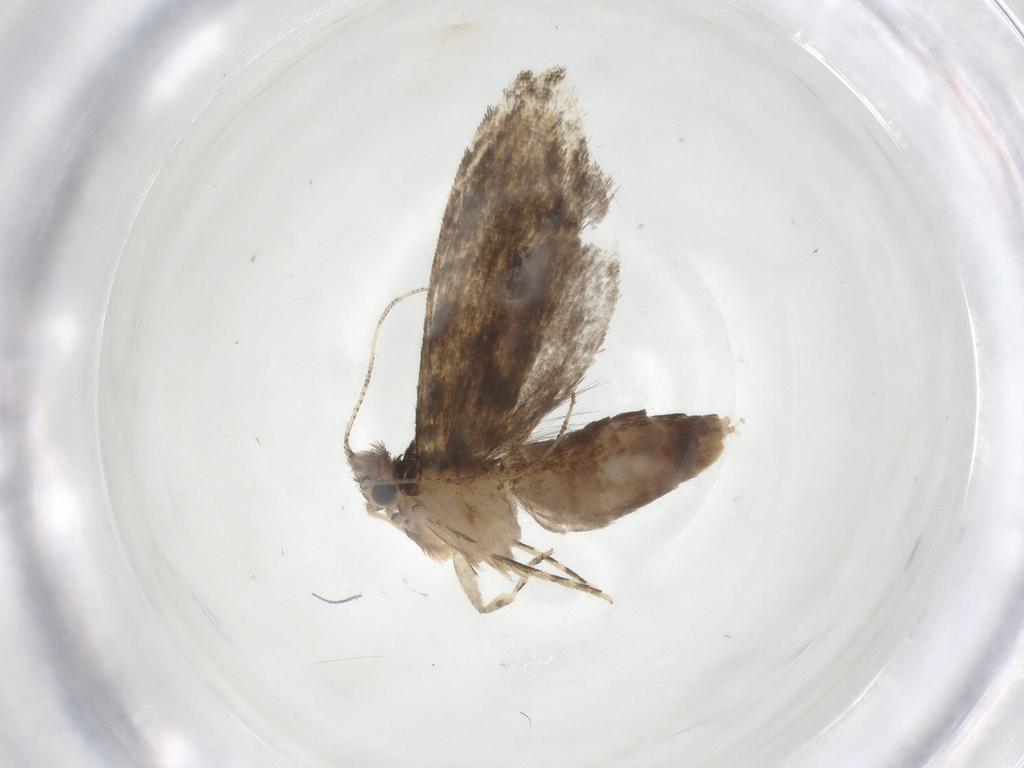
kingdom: Animalia
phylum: Arthropoda
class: Insecta
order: Lepidoptera
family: Tineidae
